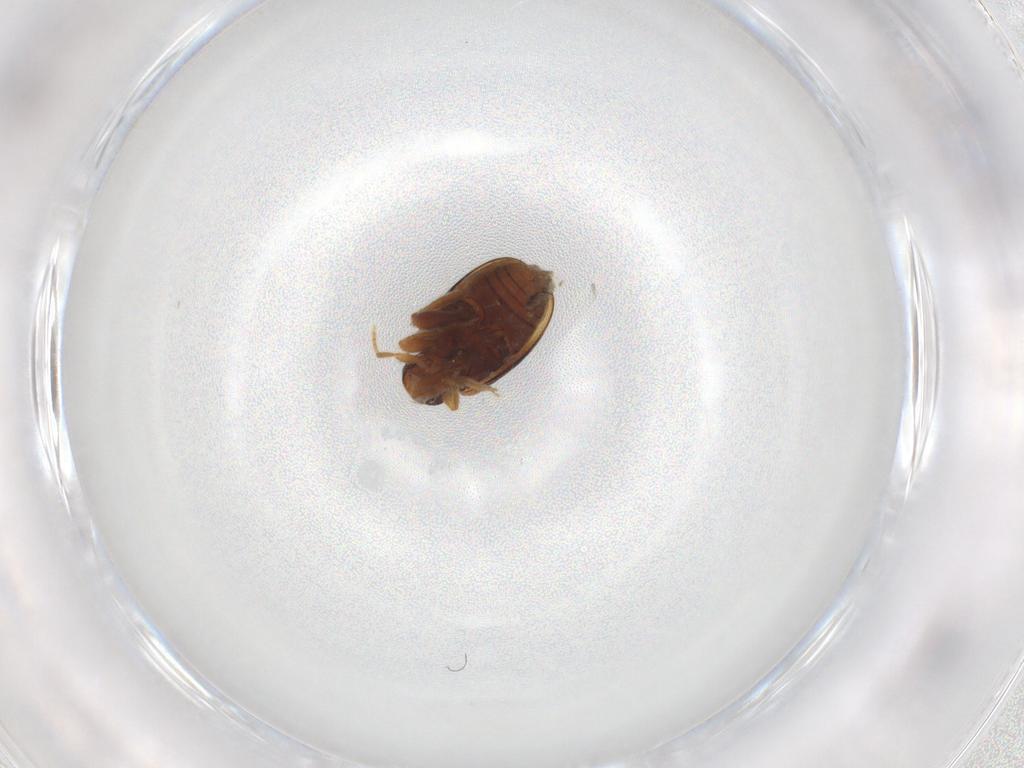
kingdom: Animalia
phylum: Arthropoda
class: Insecta
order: Coleoptera
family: Aderidae
